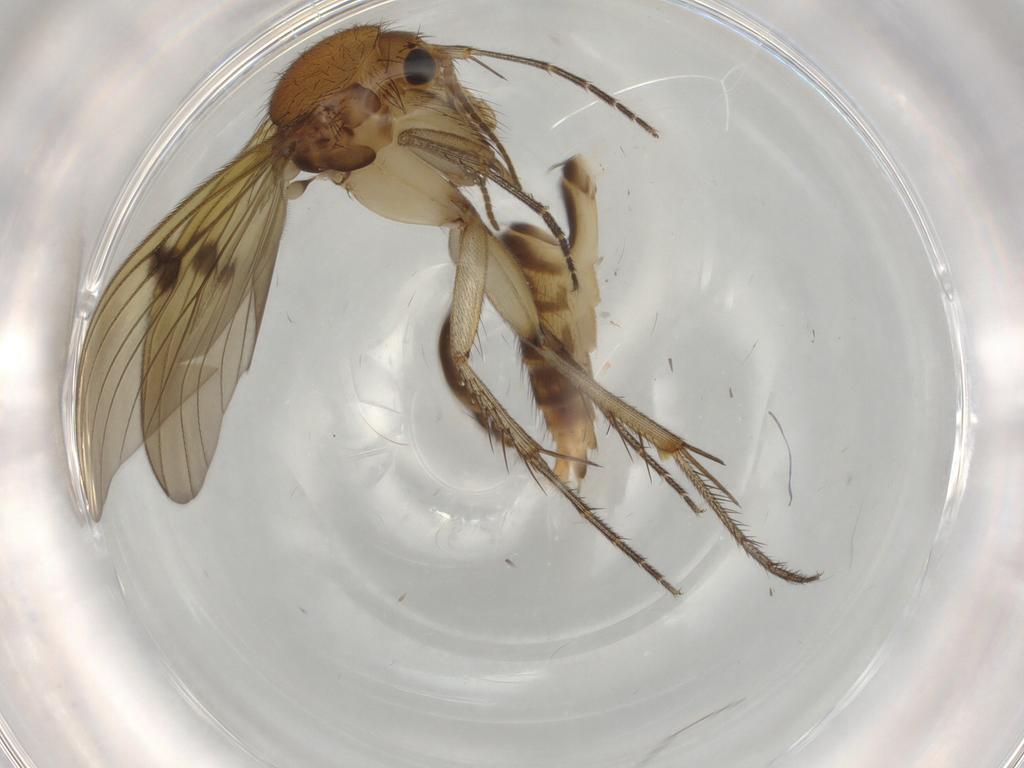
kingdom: Animalia
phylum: Arthropoda
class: Insecta
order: Diptera
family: Mycetophilidae
